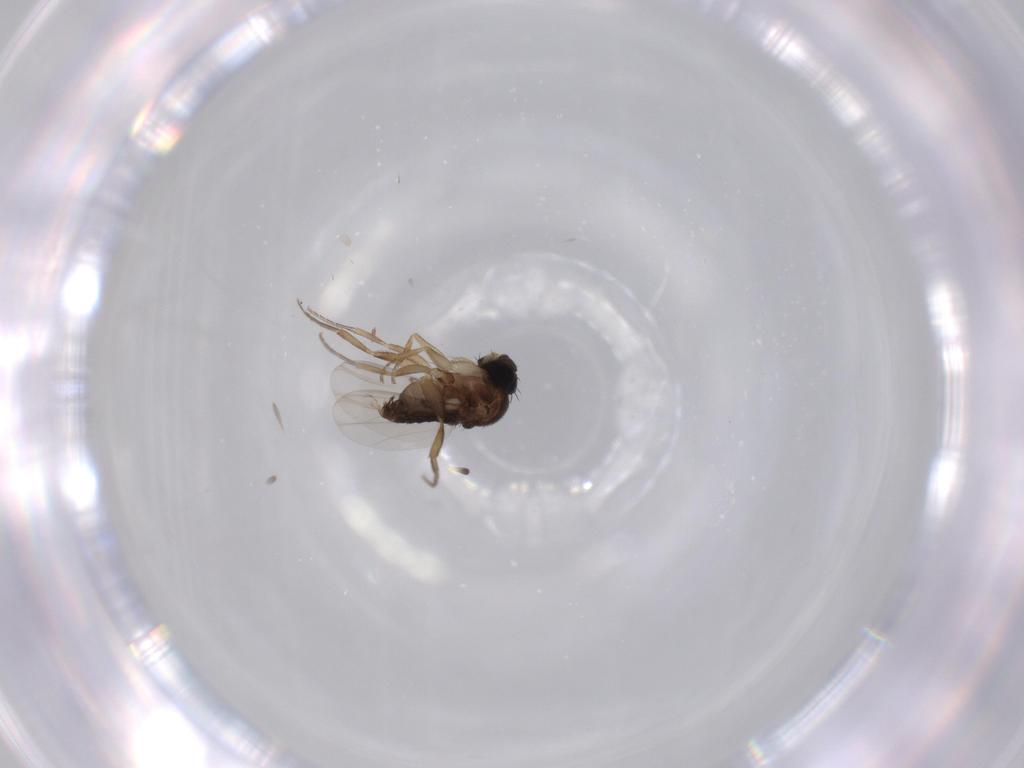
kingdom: Animalia
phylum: Arthropoda
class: Insecta
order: Diptera
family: Phoridae
